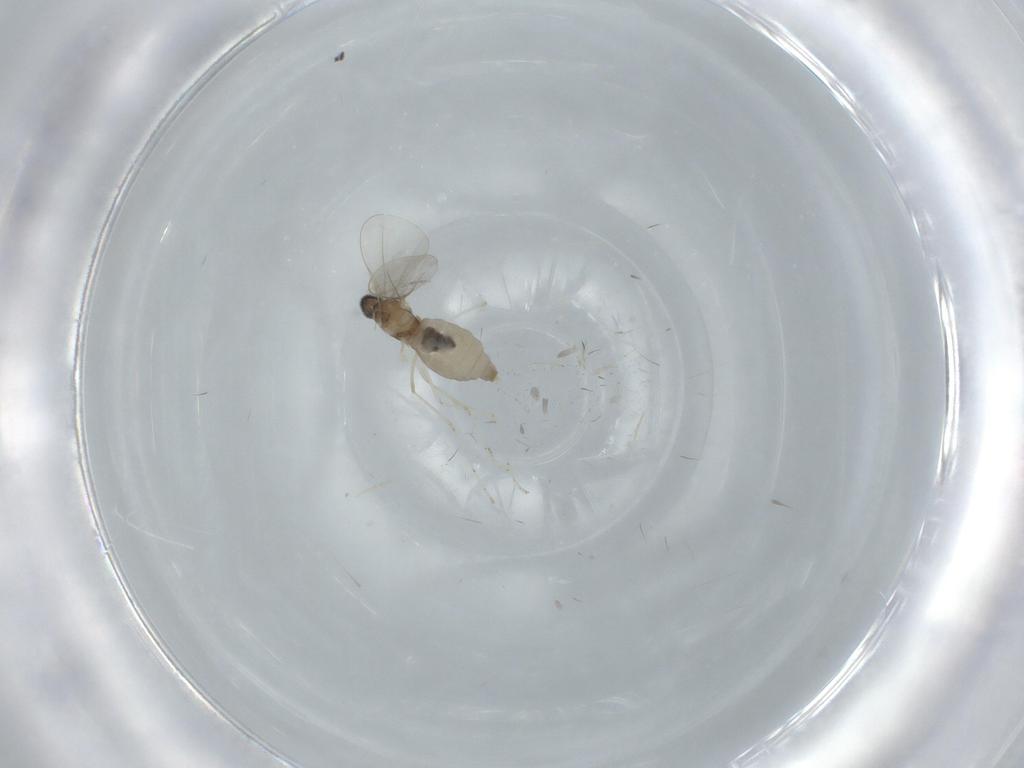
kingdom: Animalia
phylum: Arthropoda
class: Insecta
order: Diptera
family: Cecidomyiidae
